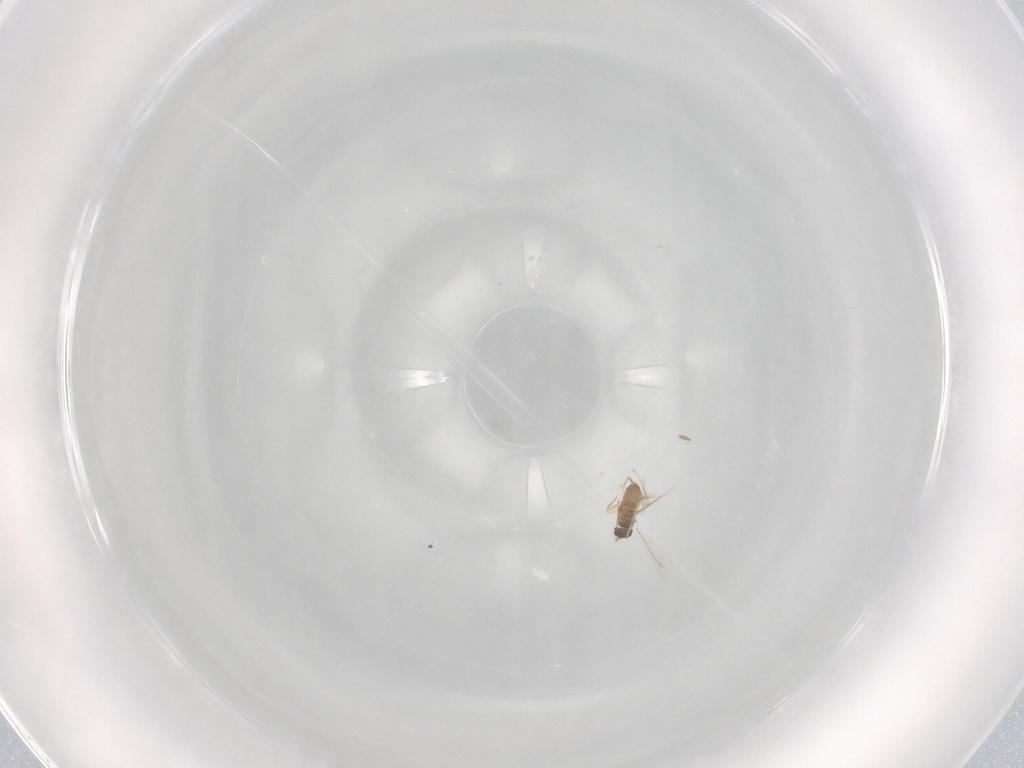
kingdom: Animalia
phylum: Arthropoda
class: Insecta
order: Hymenoptera
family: Mymaridae
